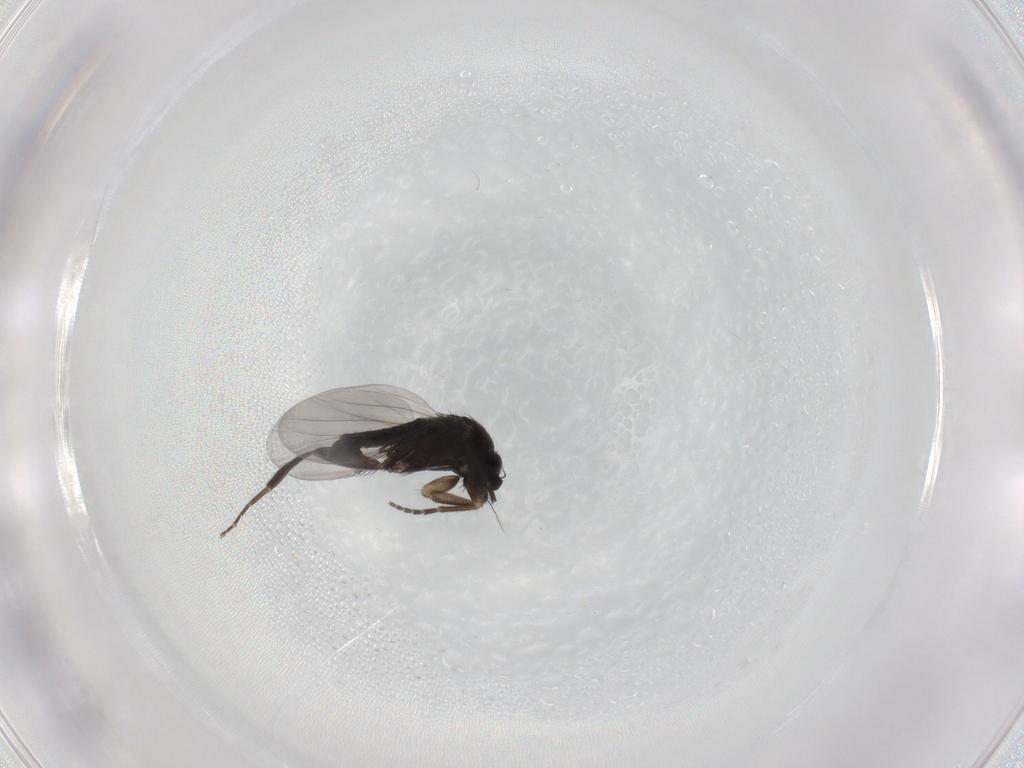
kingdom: Animalia
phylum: Arthropoda
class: Insecta
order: Diptera
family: Phoridae
